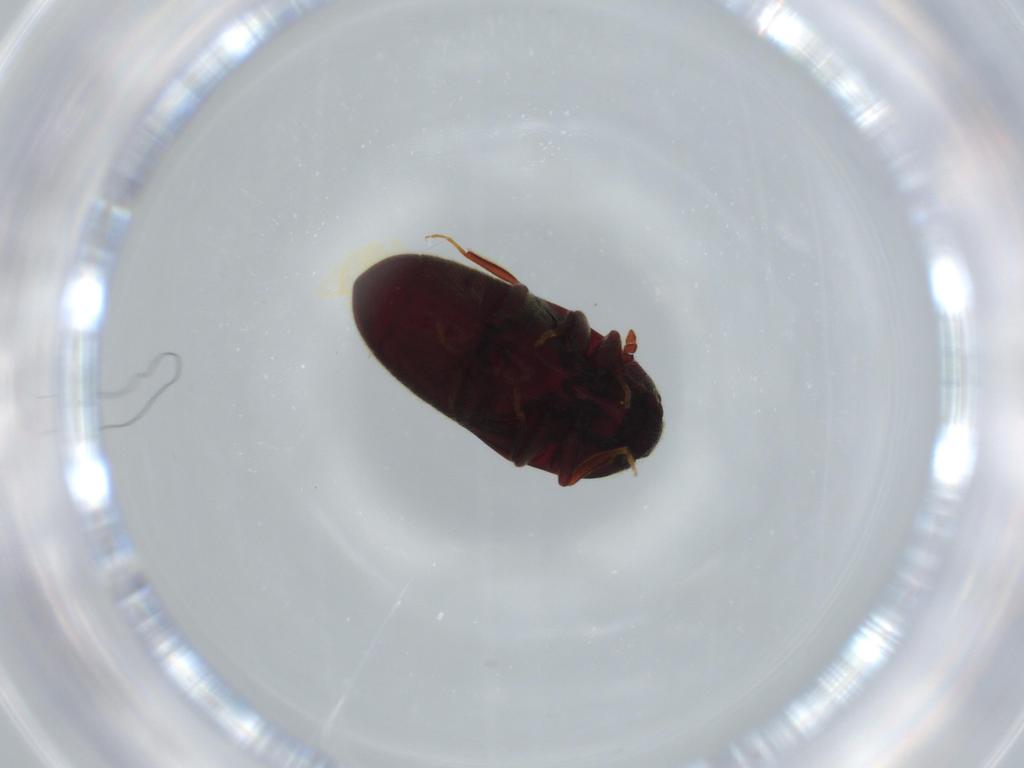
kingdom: Animalia
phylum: Arthropoda
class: Insecta
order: Coleoptera
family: Throscidae
